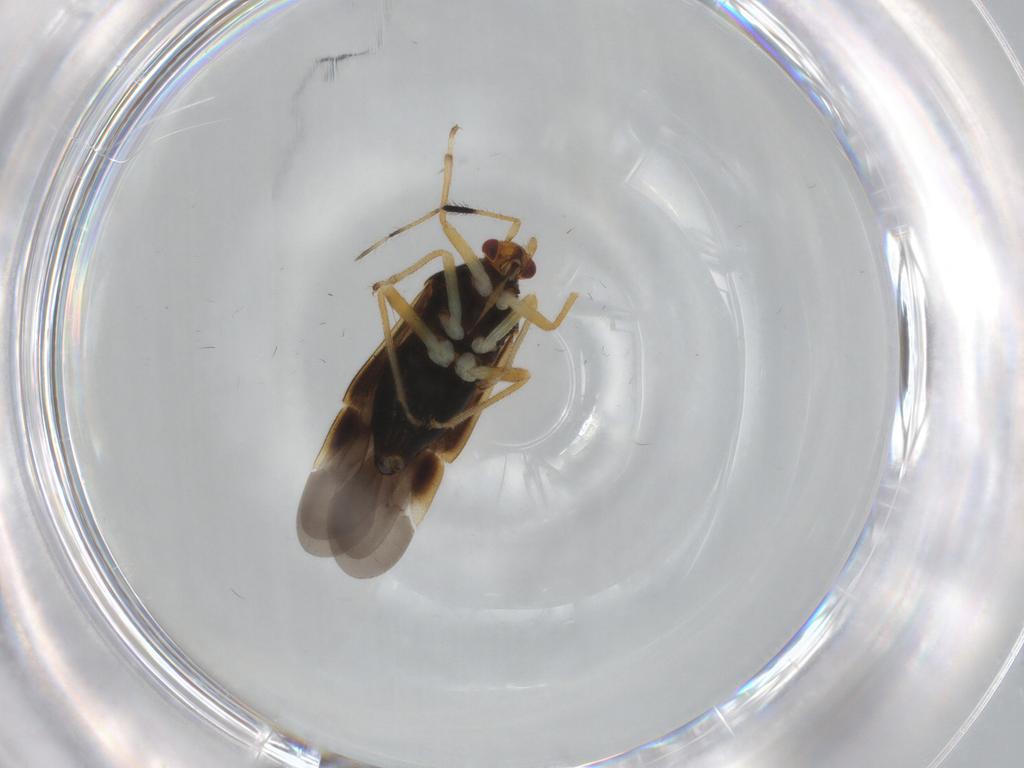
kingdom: Animalia
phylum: Arthropoda
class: Insecta
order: Hemiptera
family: Miridae
